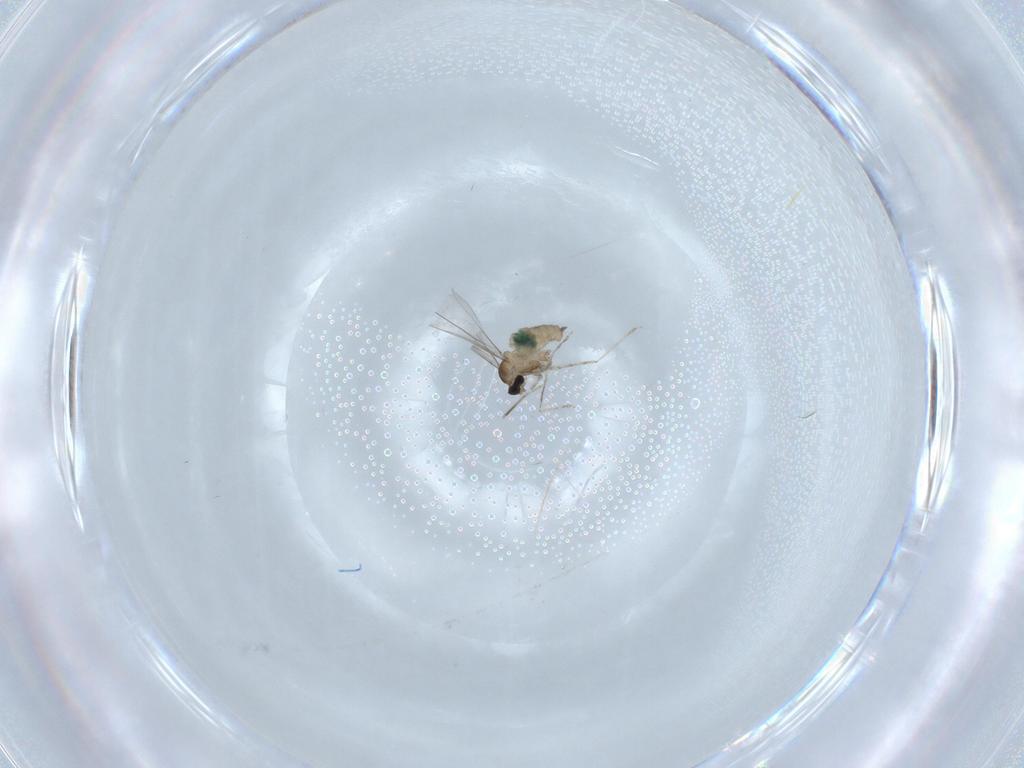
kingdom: Animalia
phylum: Arthropoda
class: Insecta
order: Diptera
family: Cecidomyiidae
